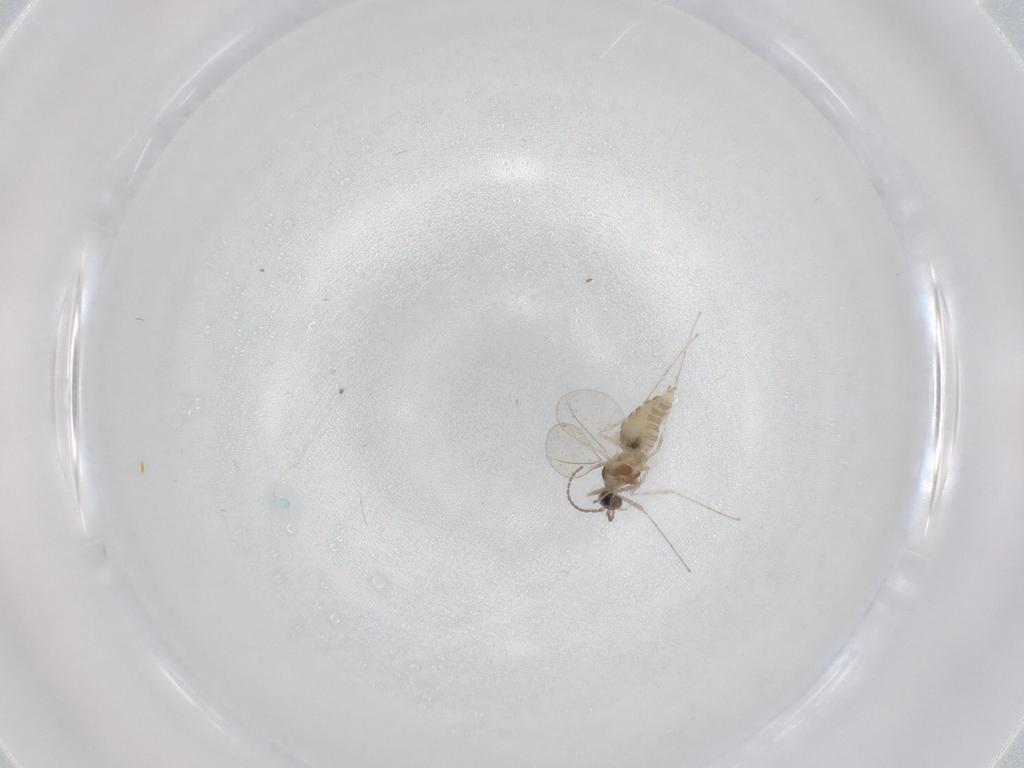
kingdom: Animalia
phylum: Arthropoda
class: Insecta
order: Diptera
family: Cecidomyiidae
